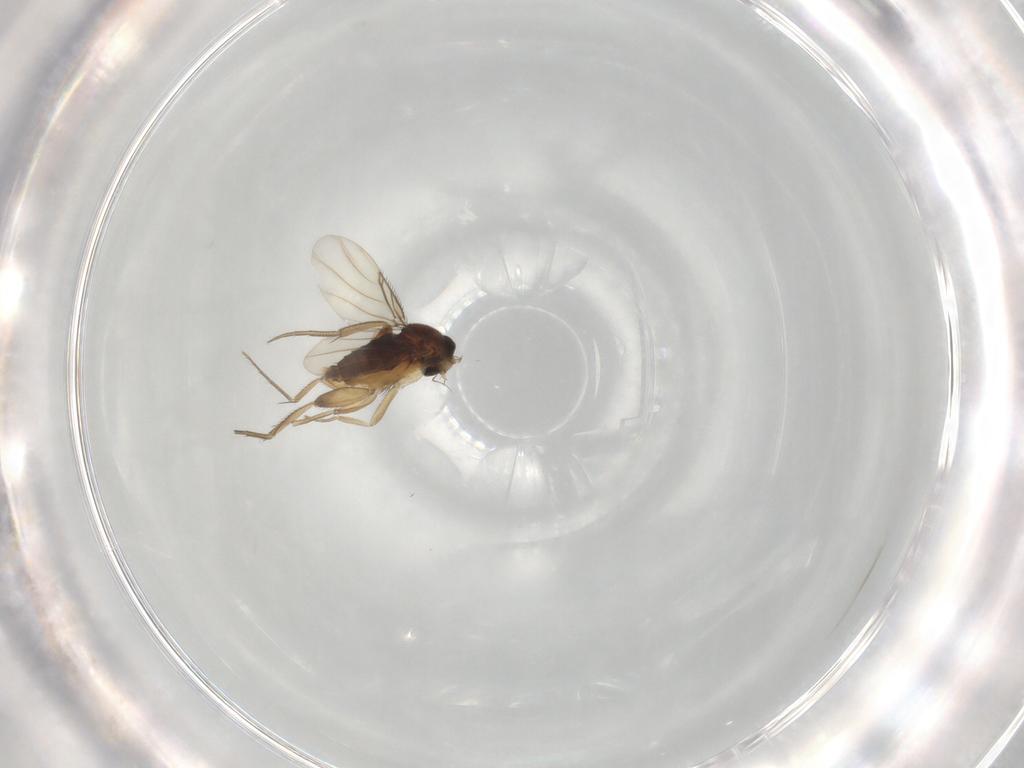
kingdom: Animalia
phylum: Arthropoda
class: Insecta
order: Diptera
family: Phoridae
